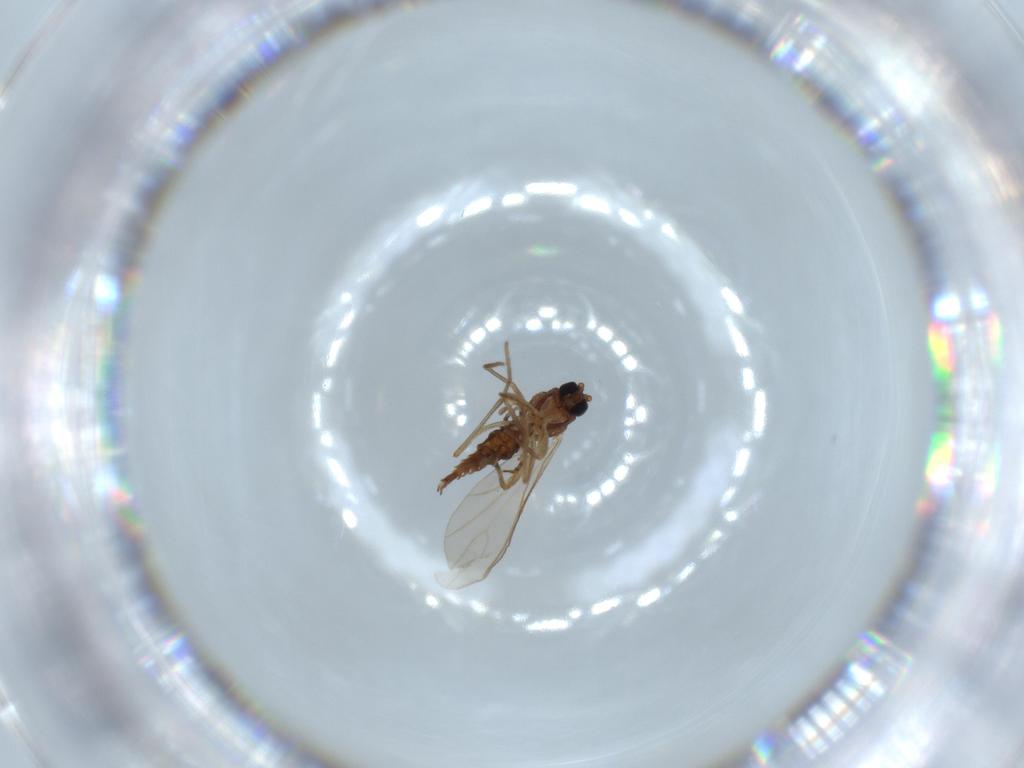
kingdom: Animalia
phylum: Arthropoda
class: Insecta
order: Diptera
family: Sciaridae
